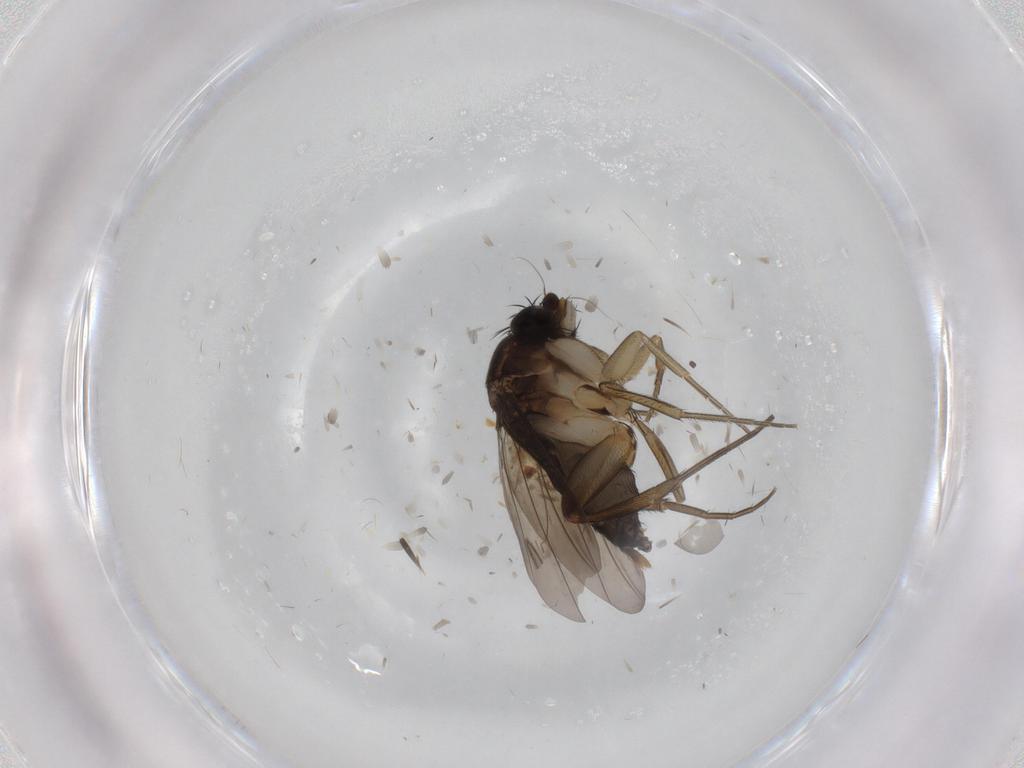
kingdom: Animalia
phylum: Arthropoda
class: Insecta
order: Diptera
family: Phoridae
